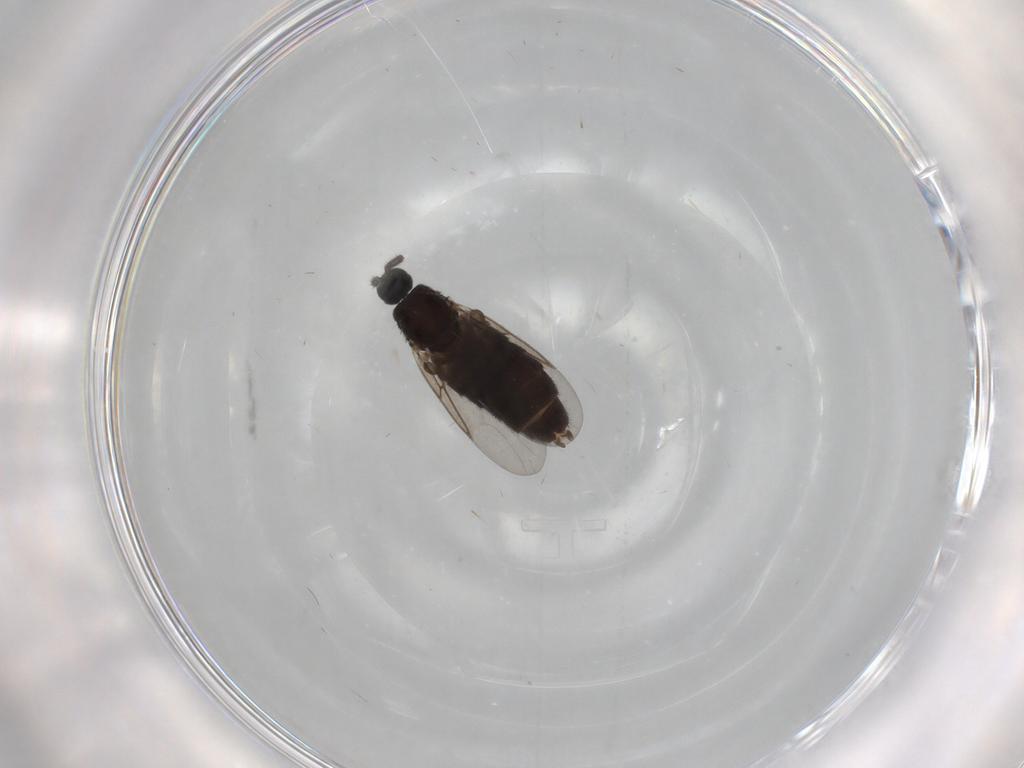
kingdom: Animalia
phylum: Arthropoda
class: Insecta
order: Diptera
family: Scatopsidae
